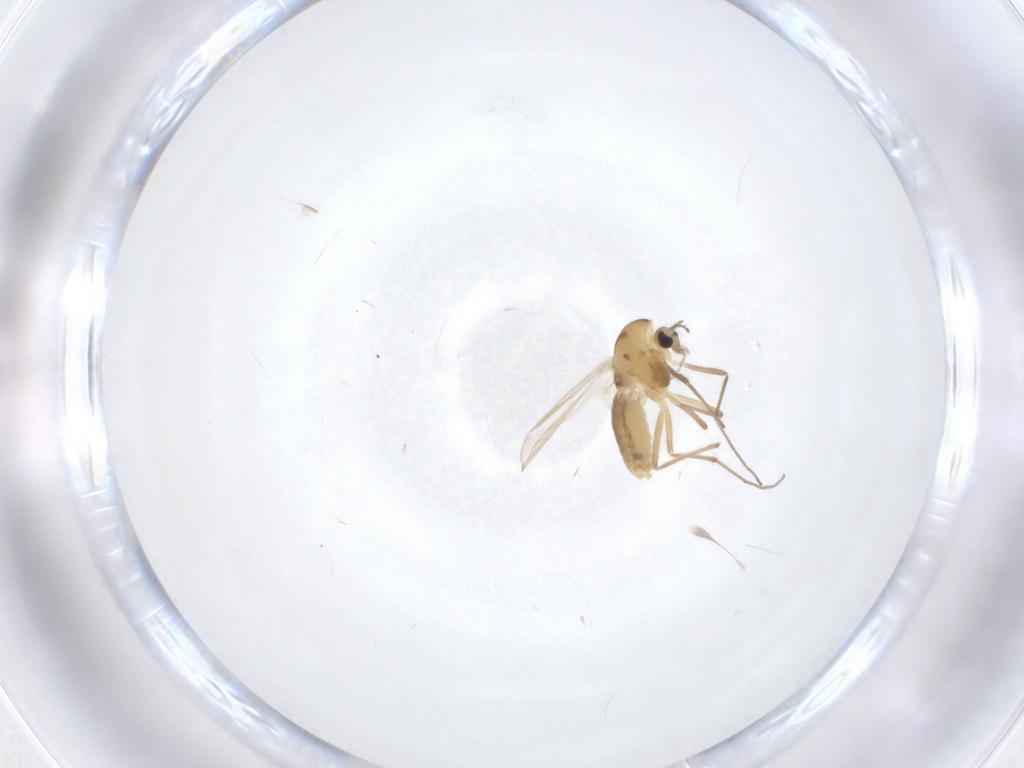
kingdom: Animalia
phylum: Arthropoda
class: Insecta
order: Diptera
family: Chironomidae
